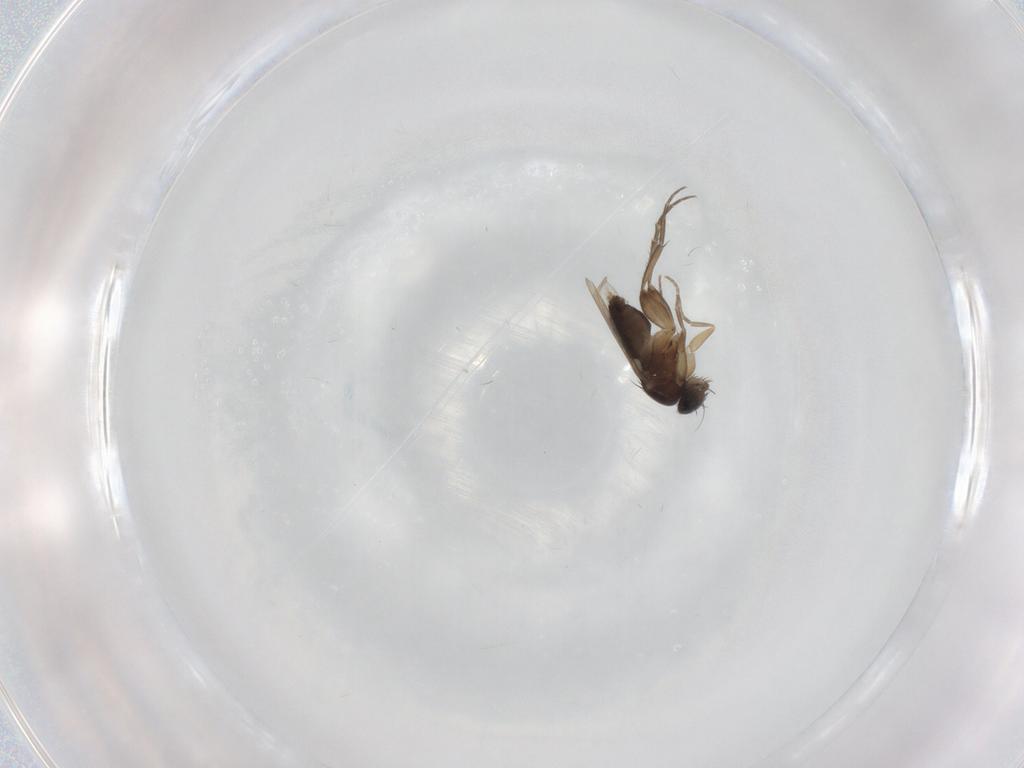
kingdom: Animalia
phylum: Arthropoda
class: Insecta
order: Diptera
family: Phoridae
